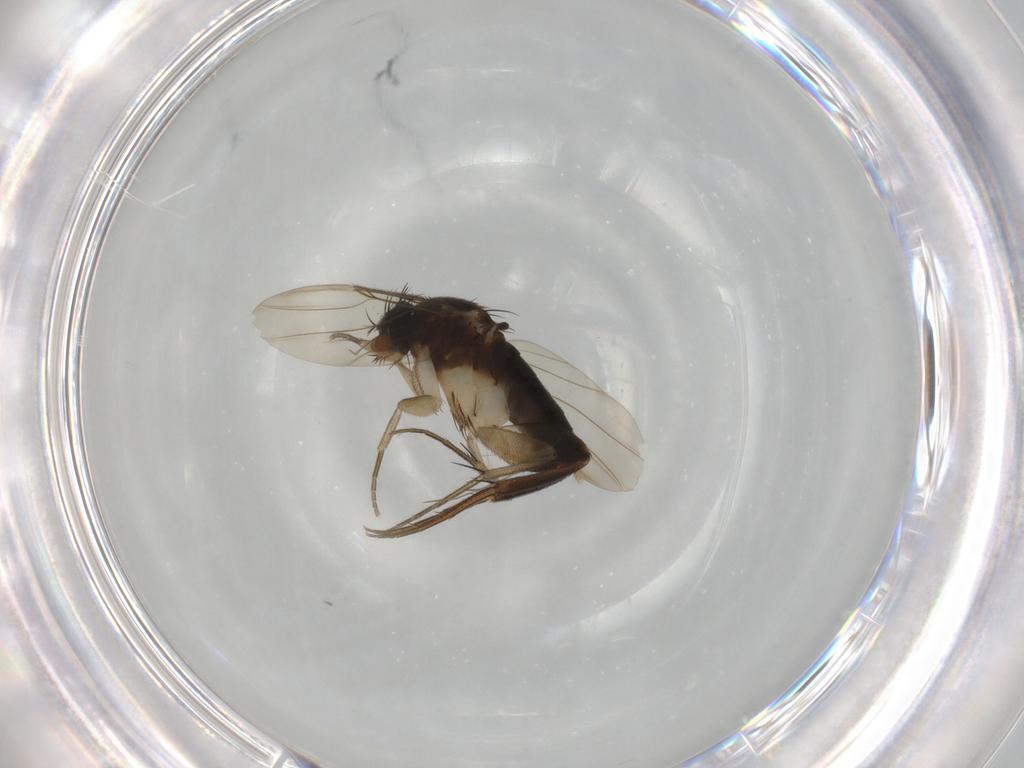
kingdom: Animalia
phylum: Arthropoda
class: Insecta
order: Diptera
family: Phoridae
